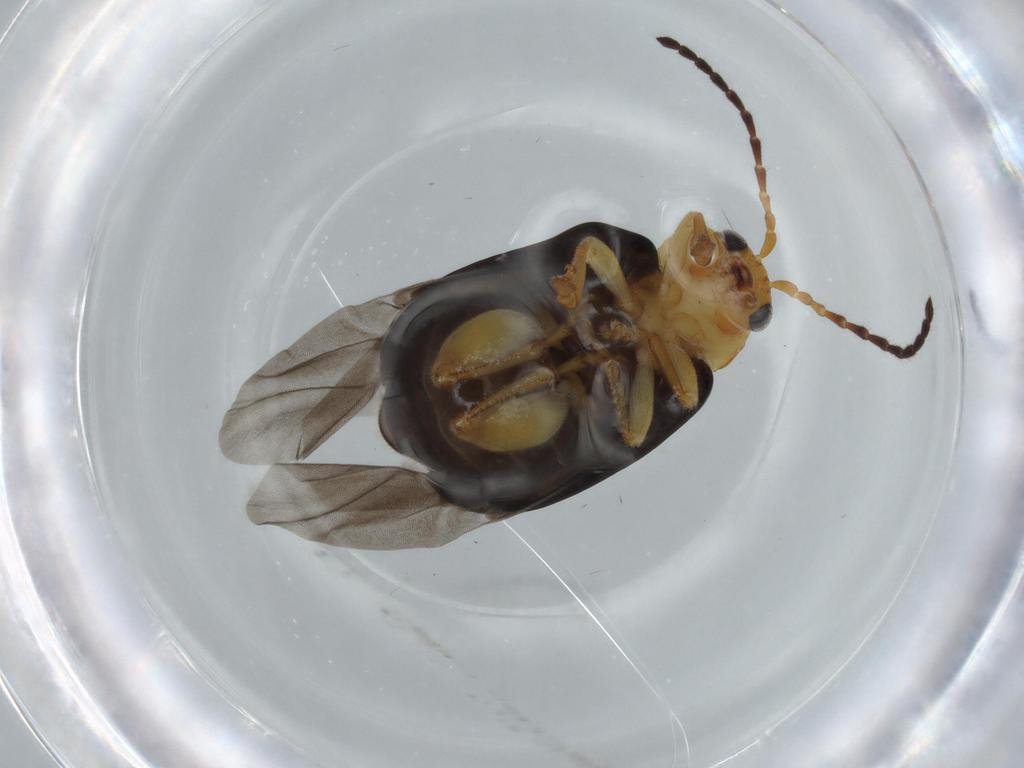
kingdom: Animalia
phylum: Arthropoda
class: Insecta
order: Coleoptera
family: Chrysomelidae
